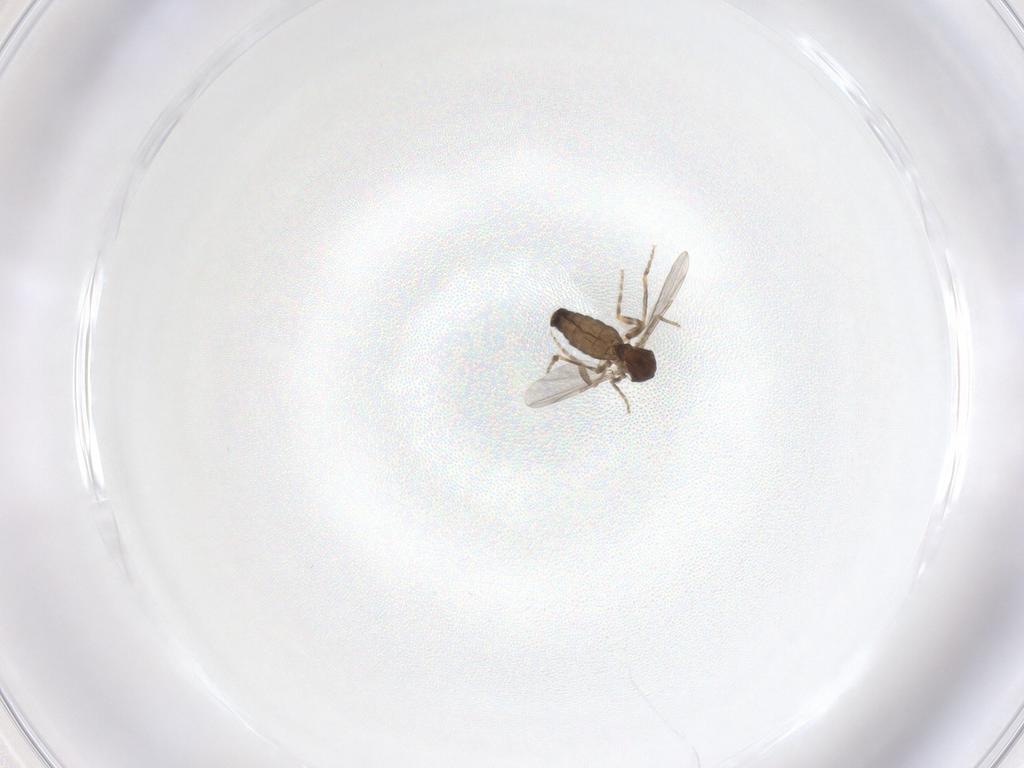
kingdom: Animalia
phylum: Arthropoda
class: Insecta
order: Diptera
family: Ceratopogonidae
